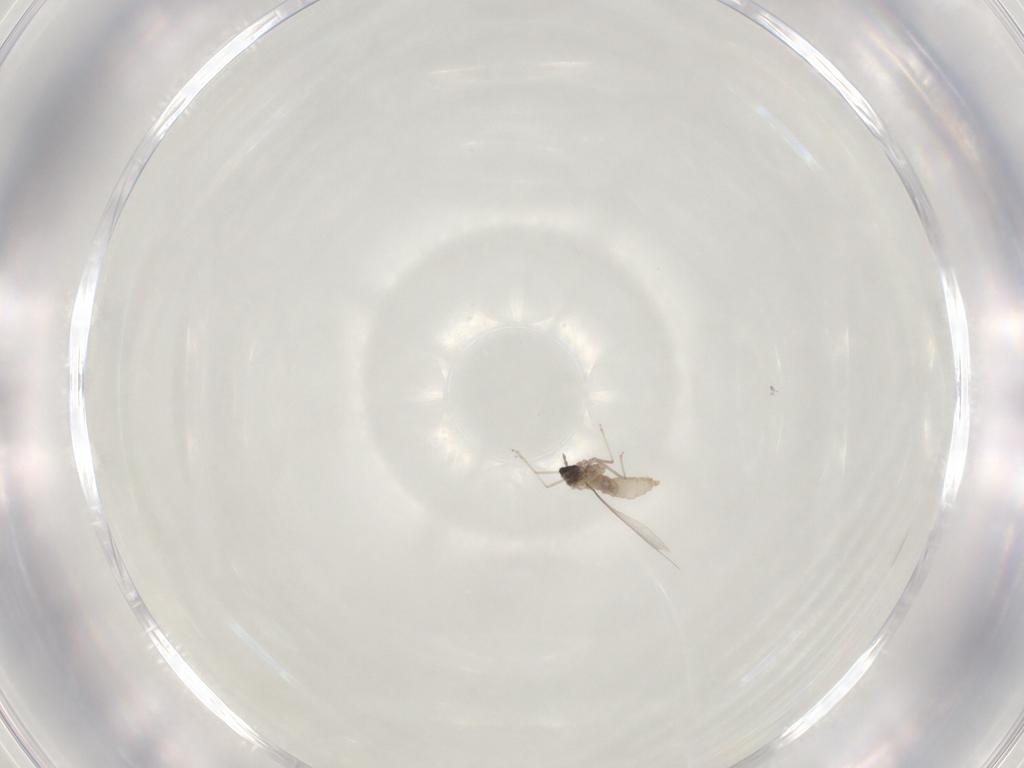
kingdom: Animalia
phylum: Arthropoda
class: Insecta
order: Diptera
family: Cecidomyiidae
